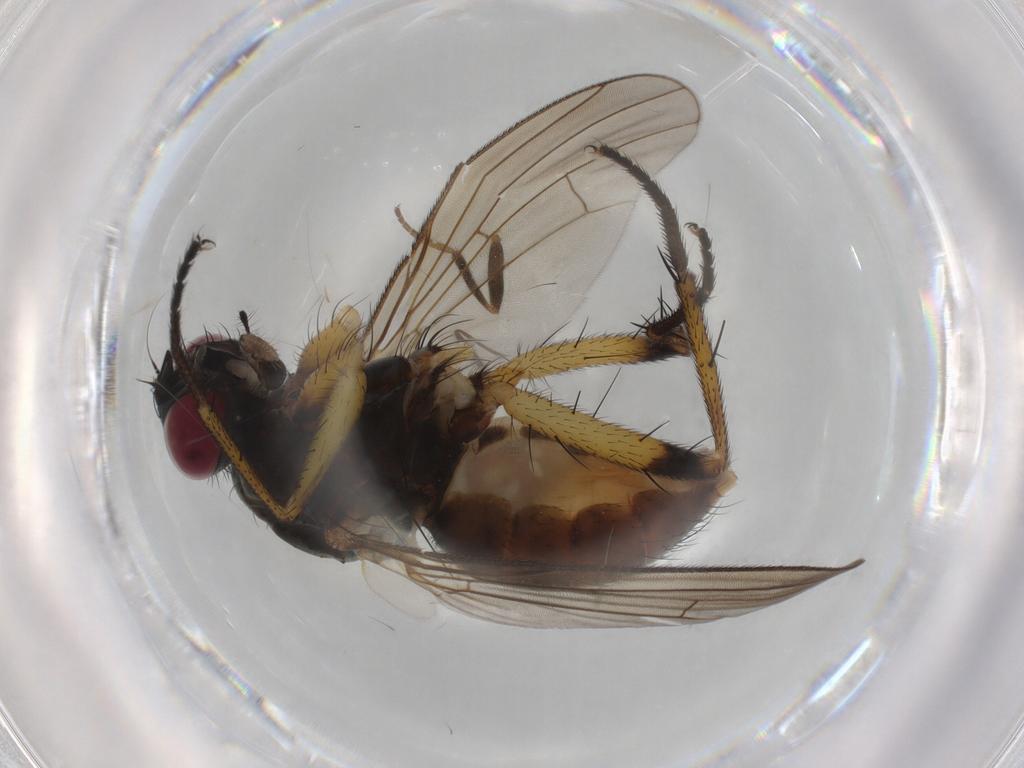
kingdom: Animalia
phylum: Arthropoda
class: Insecta
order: Diptera
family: Muscidae
